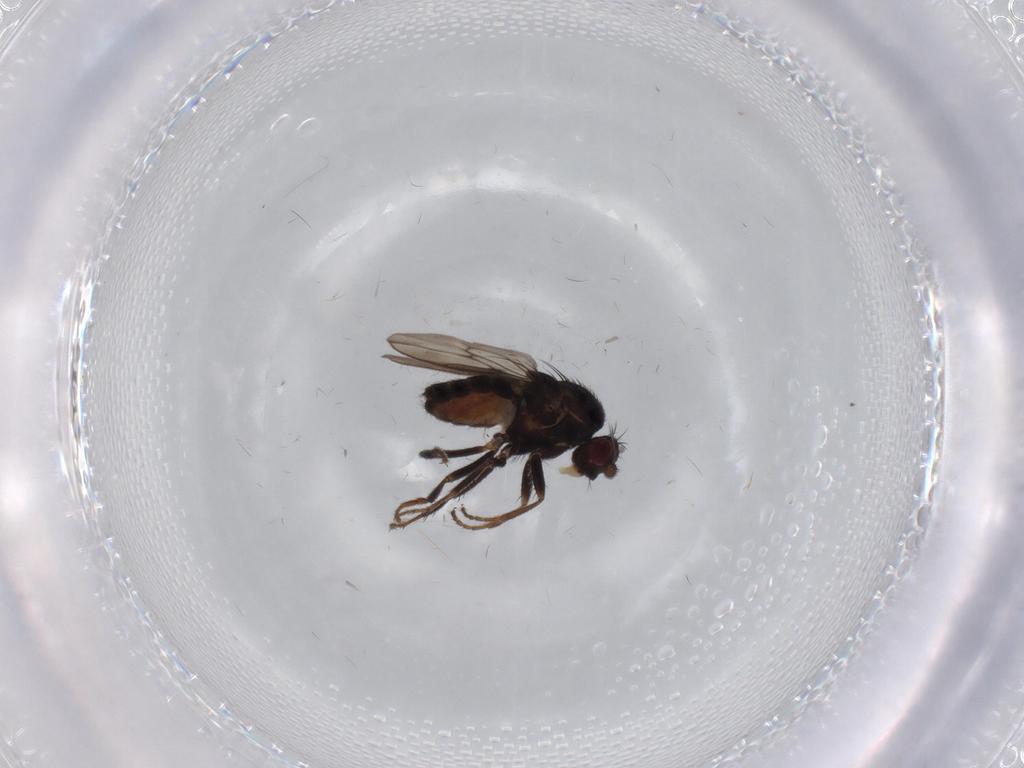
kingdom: Animalia
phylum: Arthropoda
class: Insecta
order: Diptera
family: Sphaeroceridae
